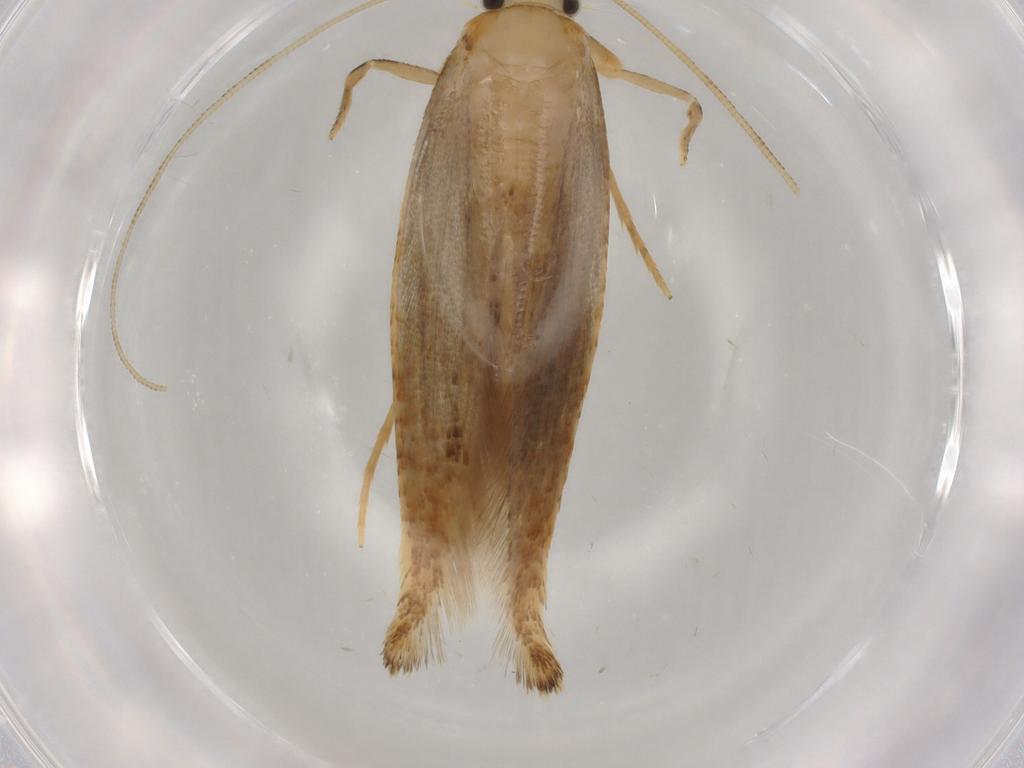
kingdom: Animalia
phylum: Arthropoda
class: Insecta
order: Lepidoptera
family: Tineidae
